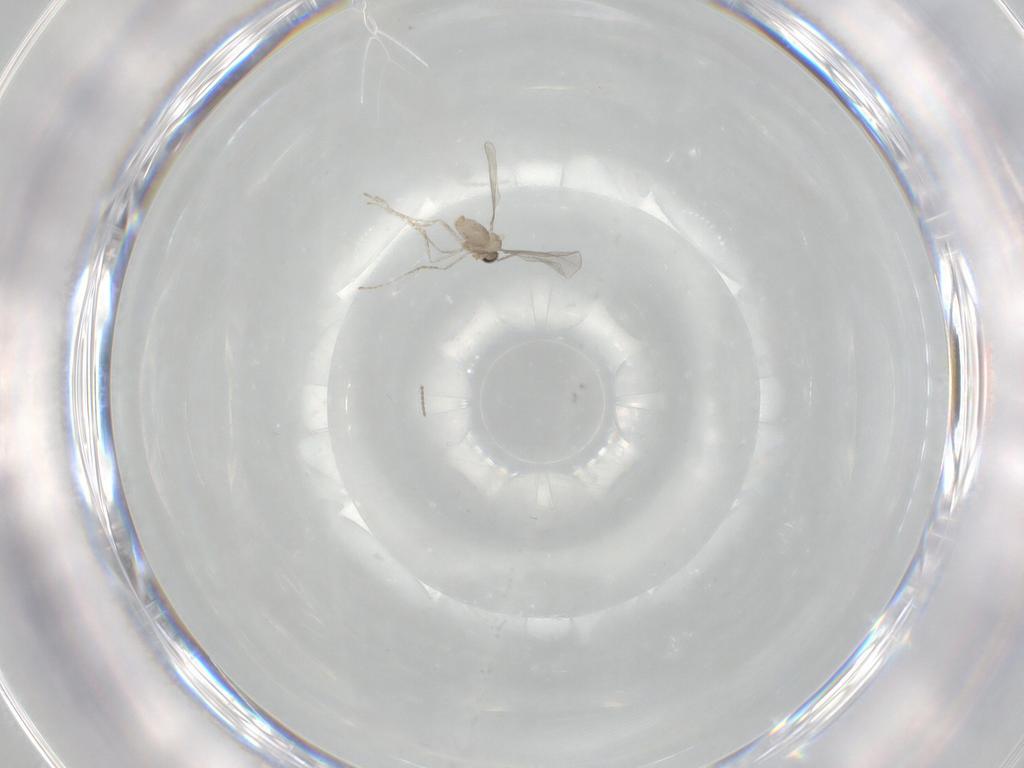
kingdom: Animalia
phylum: Arthropoda
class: Insecta
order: Diptera
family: Cecidomyiidae
